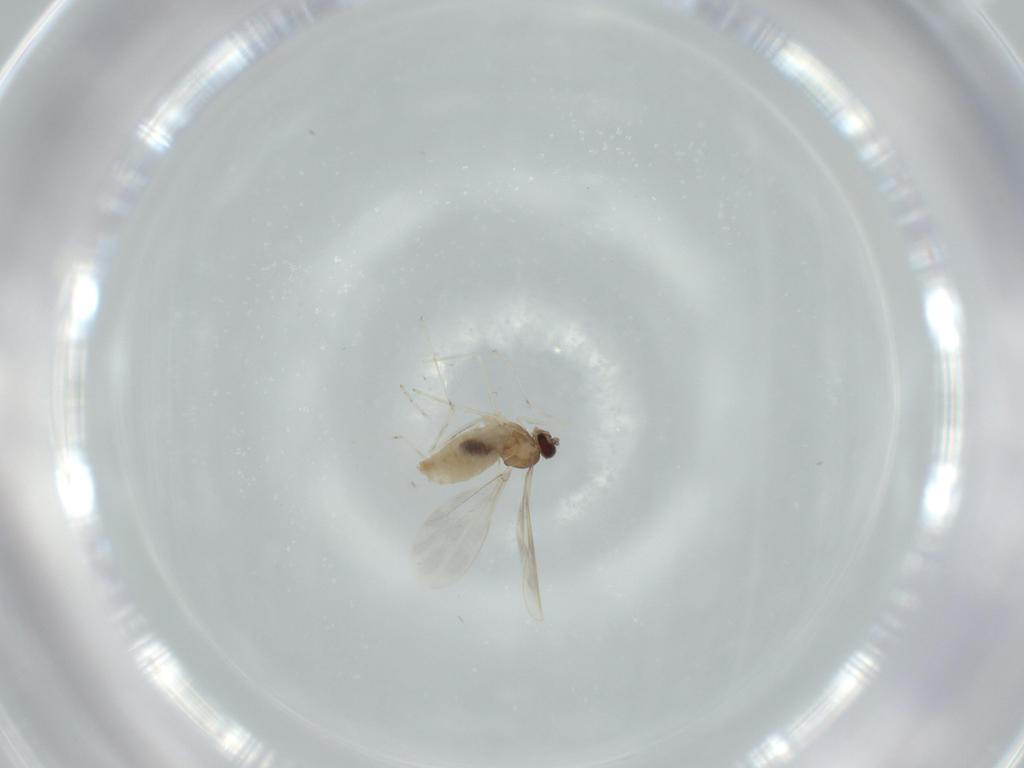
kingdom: Animalia
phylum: Arthropoda
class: Insecta
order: Diptera
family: Cecidomyiidae
